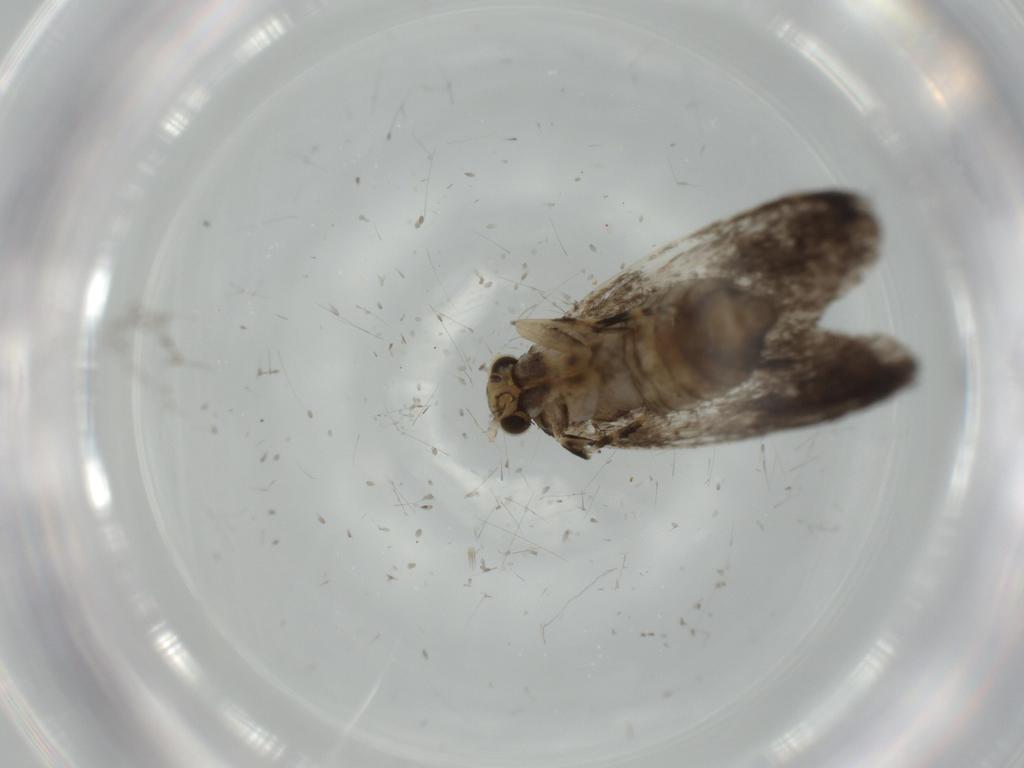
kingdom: Animalia
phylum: Arthropoda
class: Insecta
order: Lepidoptera
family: Tineidae
